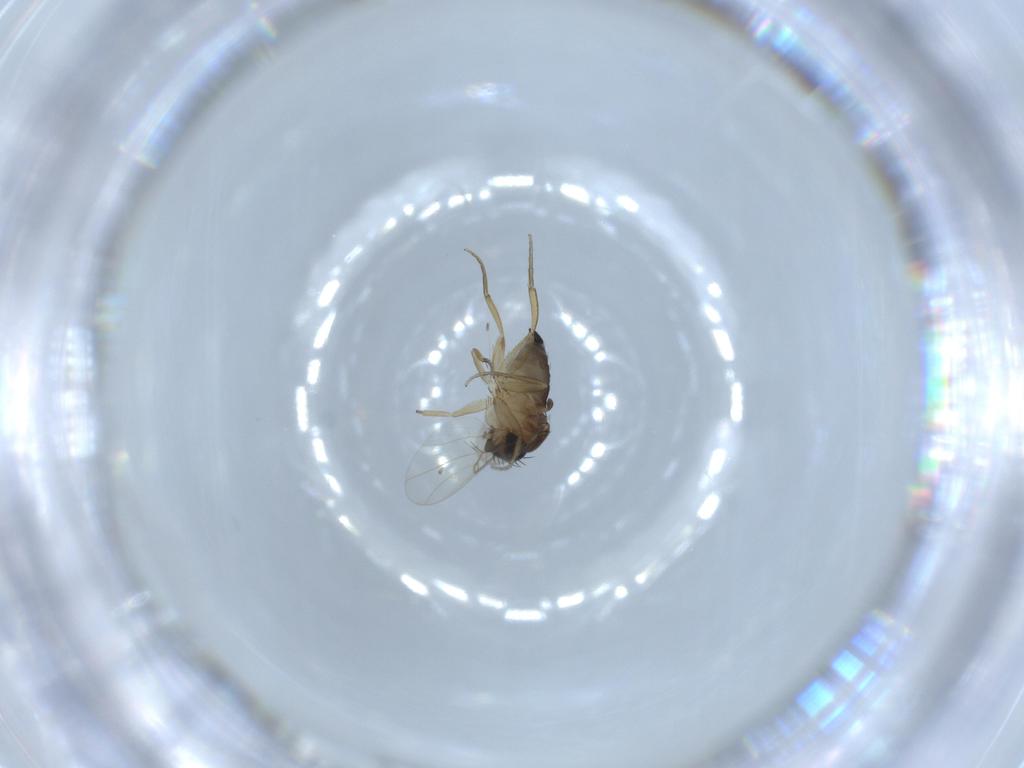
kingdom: Animalia
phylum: Arthropoda
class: Insecta
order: Diptera
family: Phoridae
